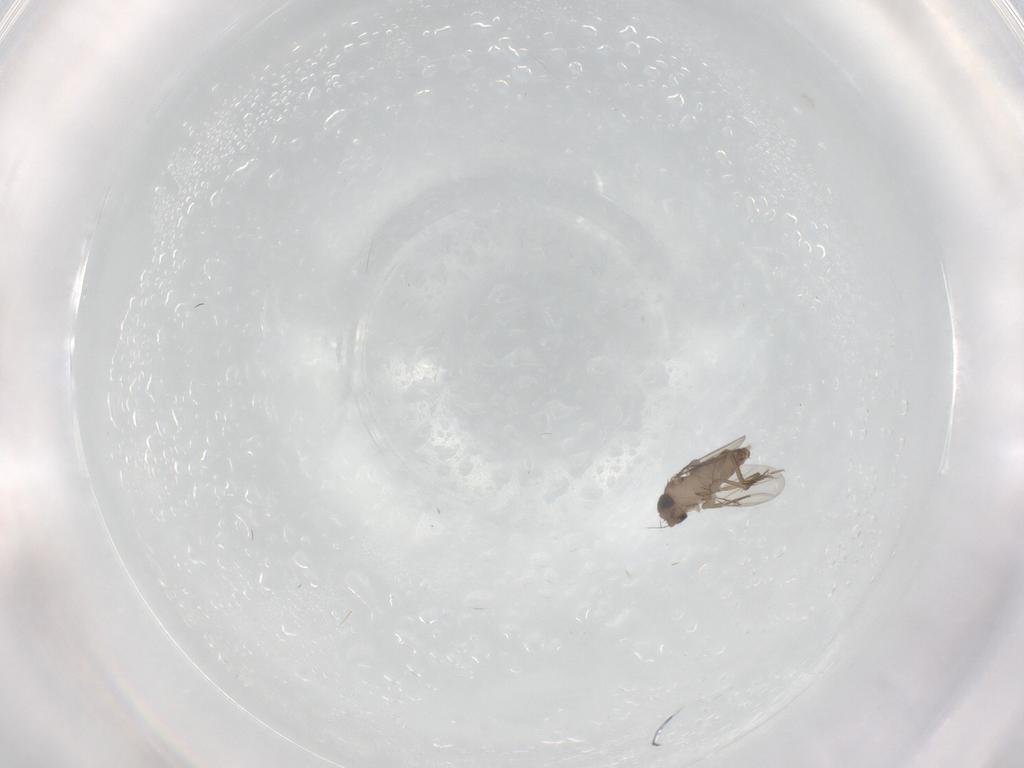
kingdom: Animalia
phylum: Arthropoda
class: Insecta
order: Diptera
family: Phoridae
